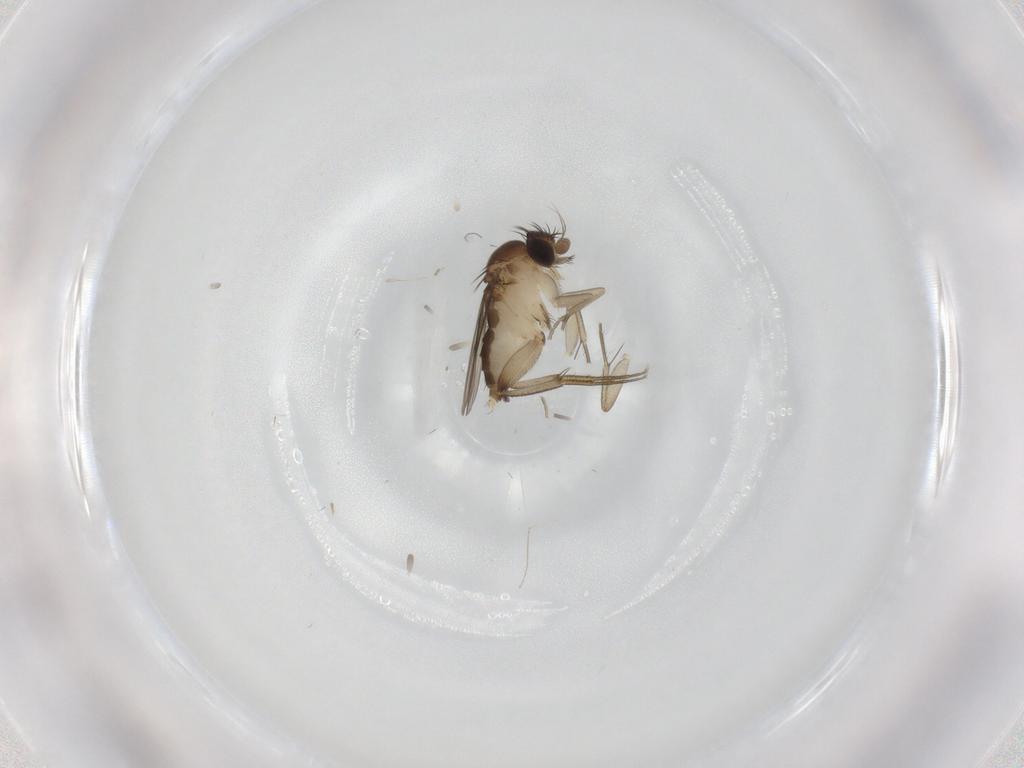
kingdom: Animalia
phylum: Arthropoda
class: Insecta
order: Diptera
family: Phoridae
